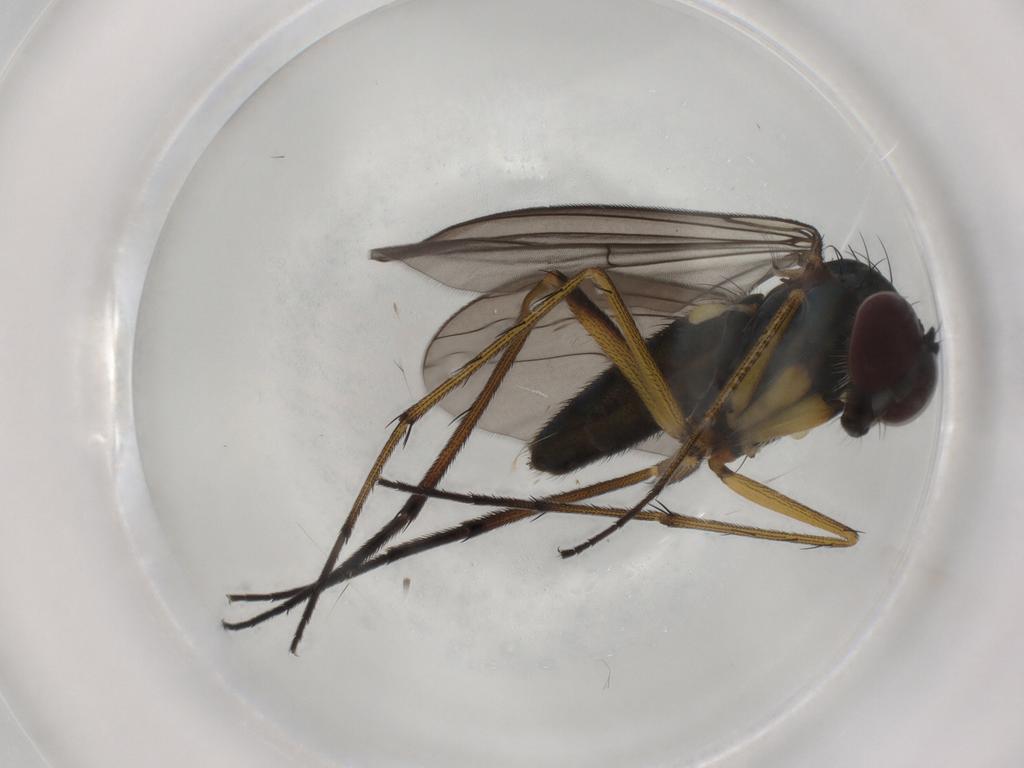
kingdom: Animalia
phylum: Arthropoda
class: Insecta
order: Diptera
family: Dolichopodidae
